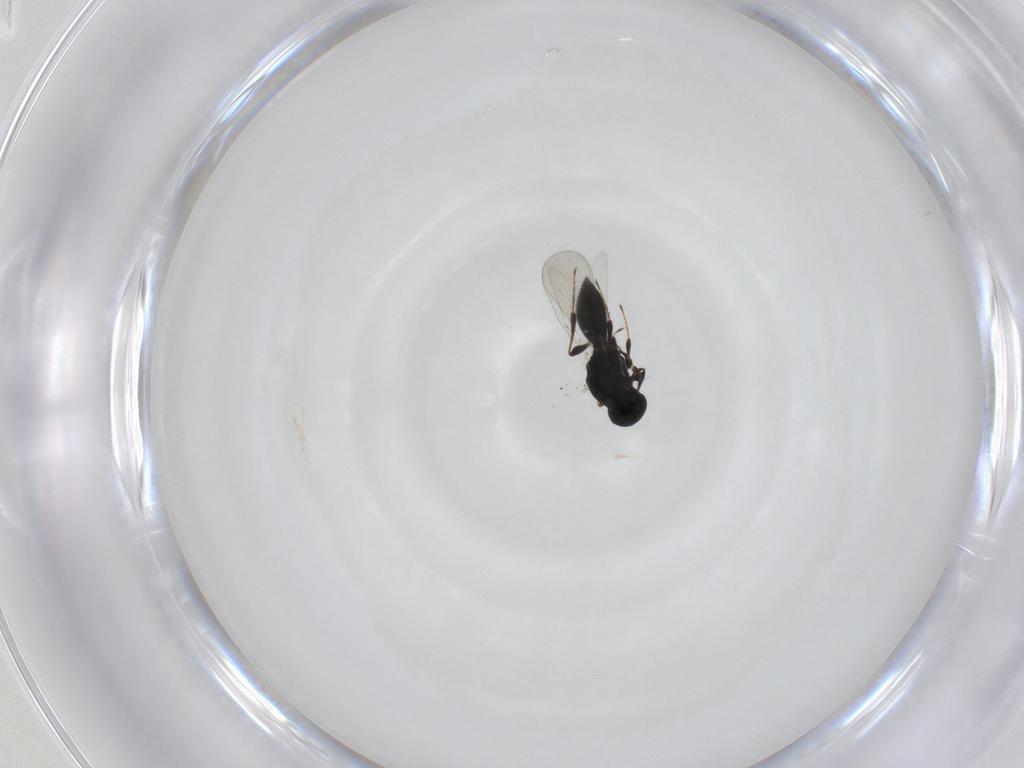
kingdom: Animalia
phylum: Arthropoda
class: Insecta
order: Hymenoptera
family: Platygastridae
